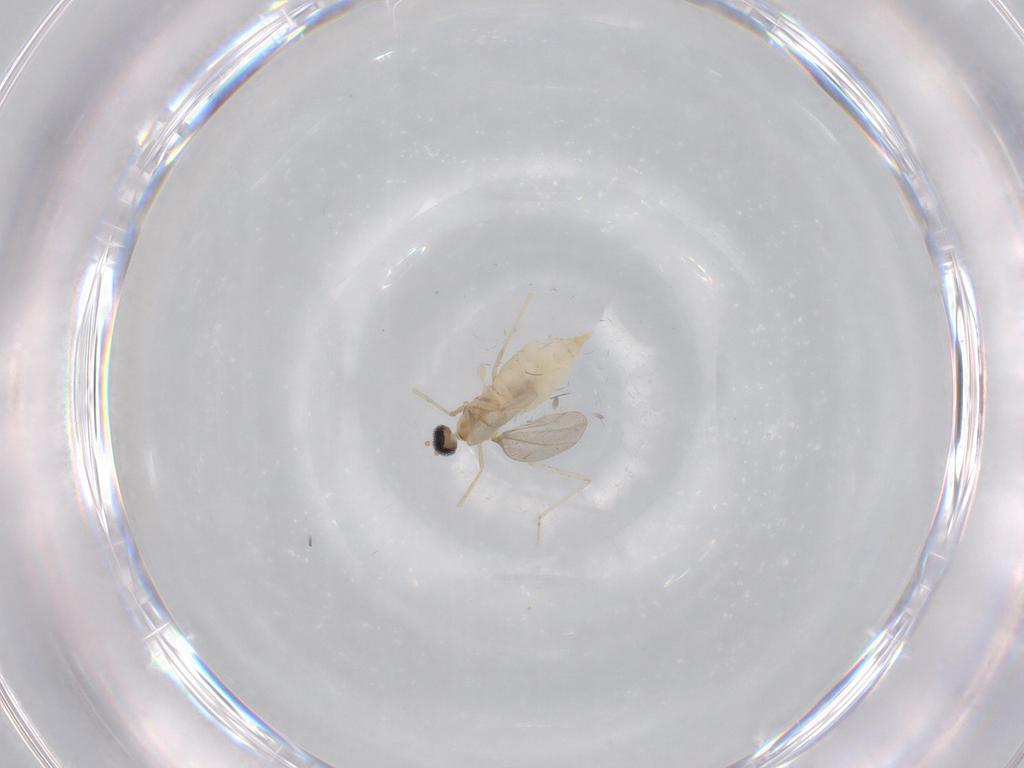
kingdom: Animalia
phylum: Arthropoda
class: Insecta
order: Diptera
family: Cecidomyiidae
